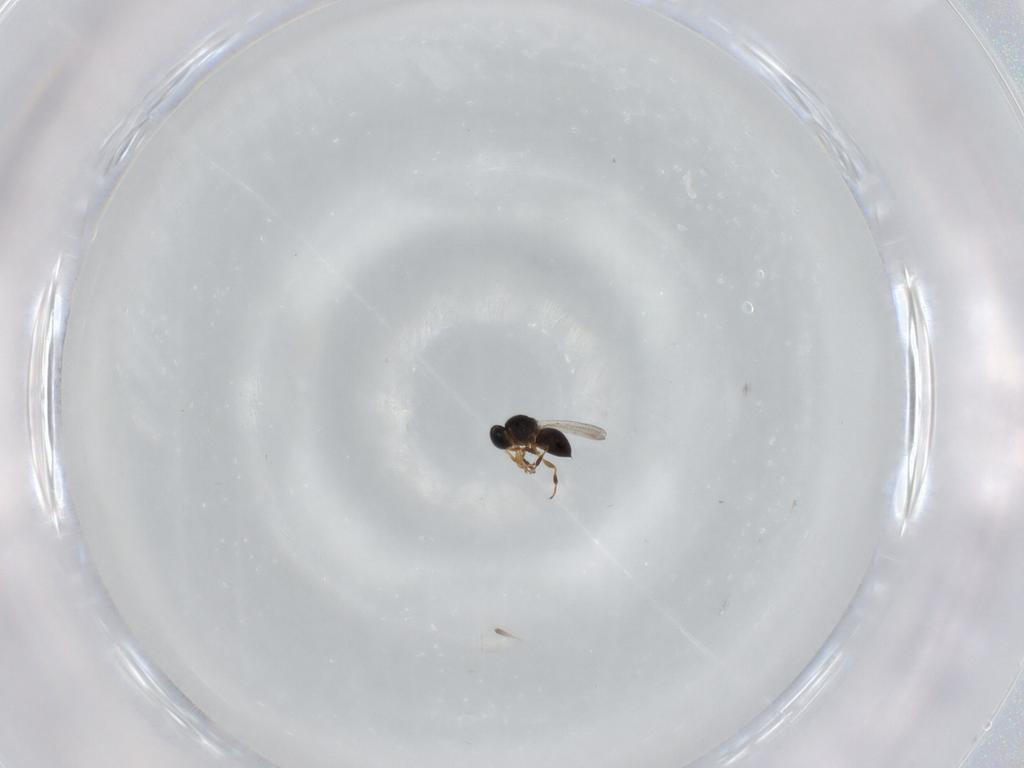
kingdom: Animalia
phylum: Arthropoda
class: Insecta
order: Hymenoptera
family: Platygastridae
